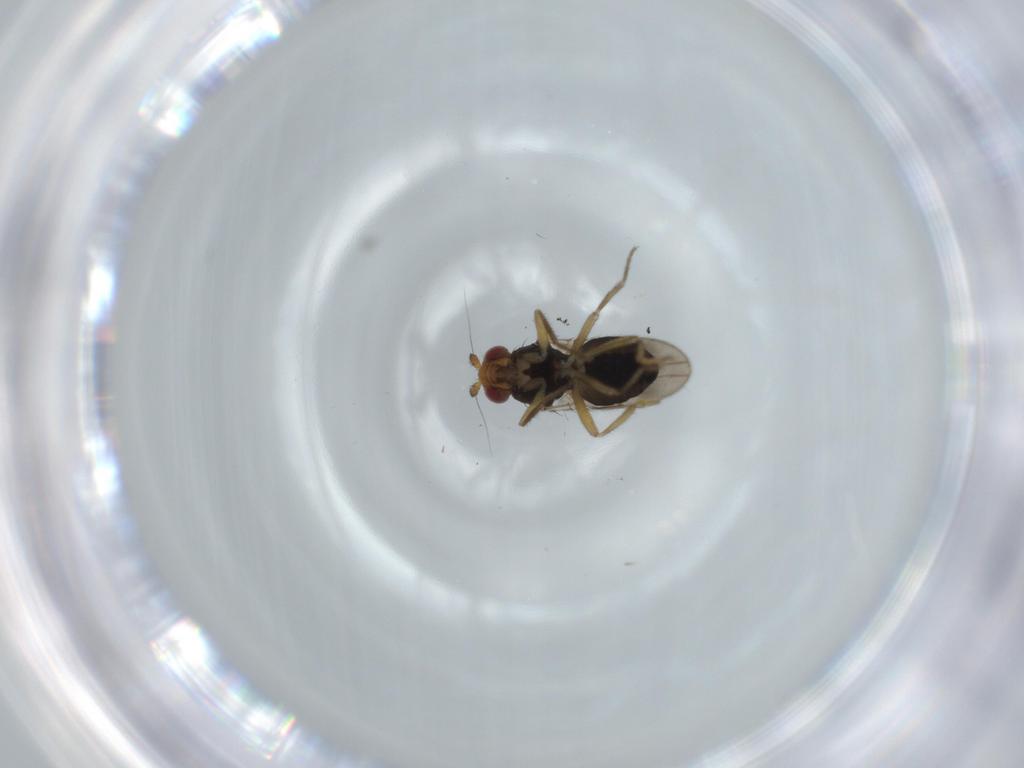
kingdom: Animalia
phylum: Arthropoda
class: Insecta
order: Diptera
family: Sphaeroceridae
